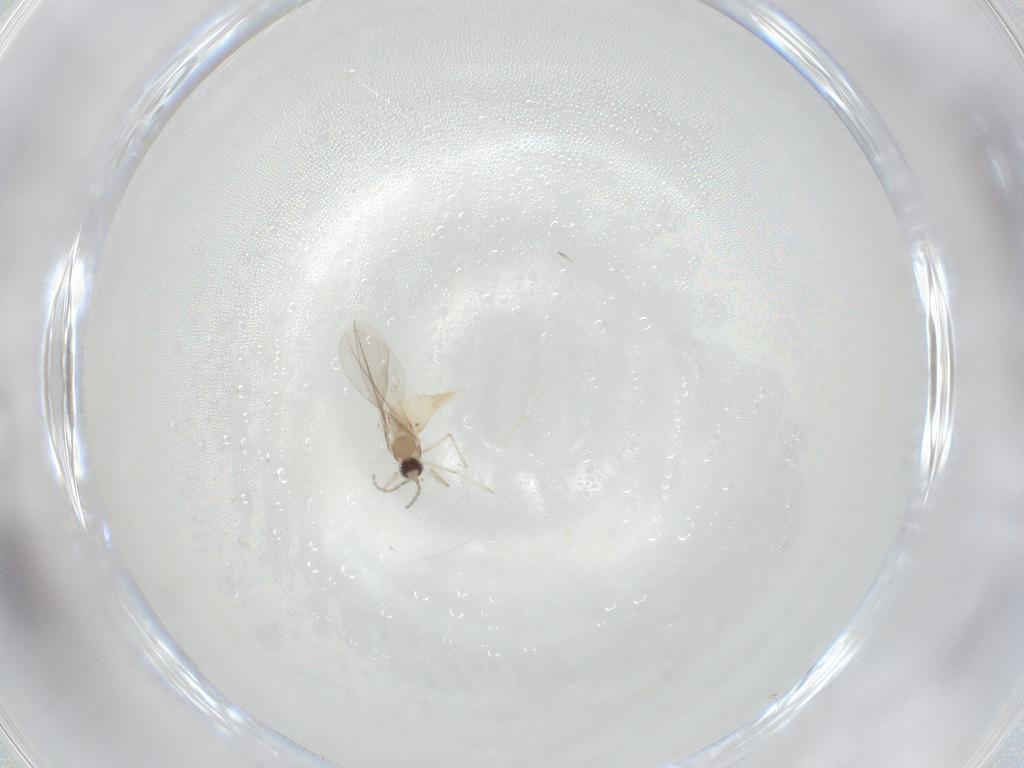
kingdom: Animalia
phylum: Arthropoda
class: Insecta
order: Diptera
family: Cecidomyiidae
